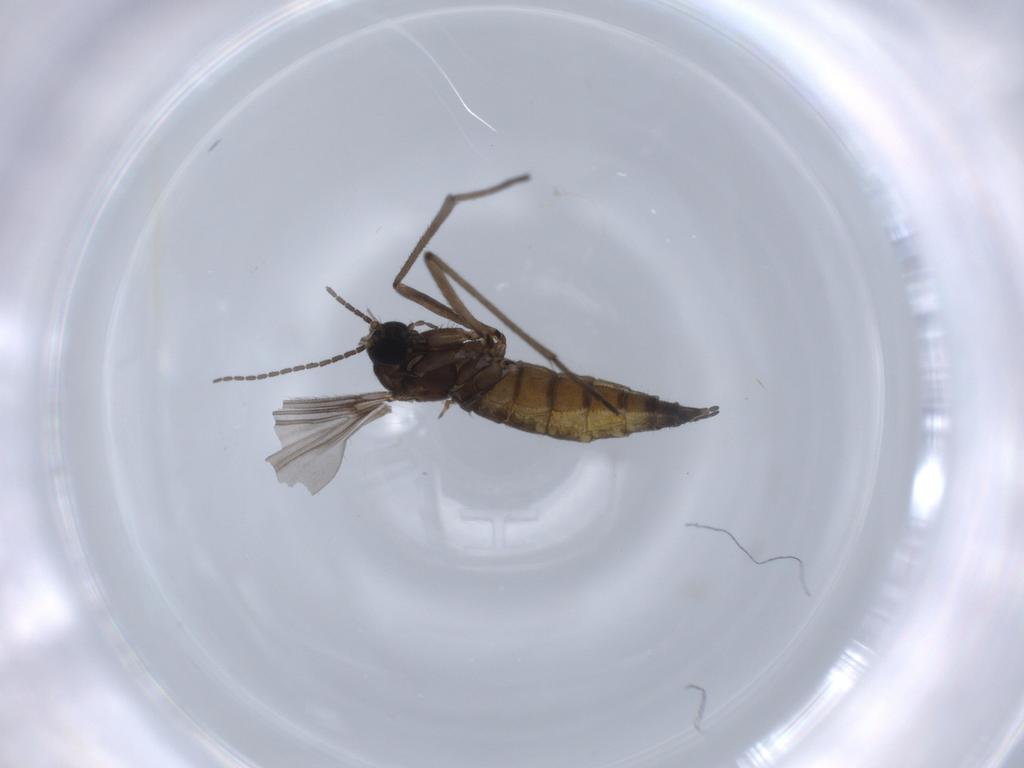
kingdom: Animalia
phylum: Arthropoda
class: Insecta
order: Diptera
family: Sciaridae
